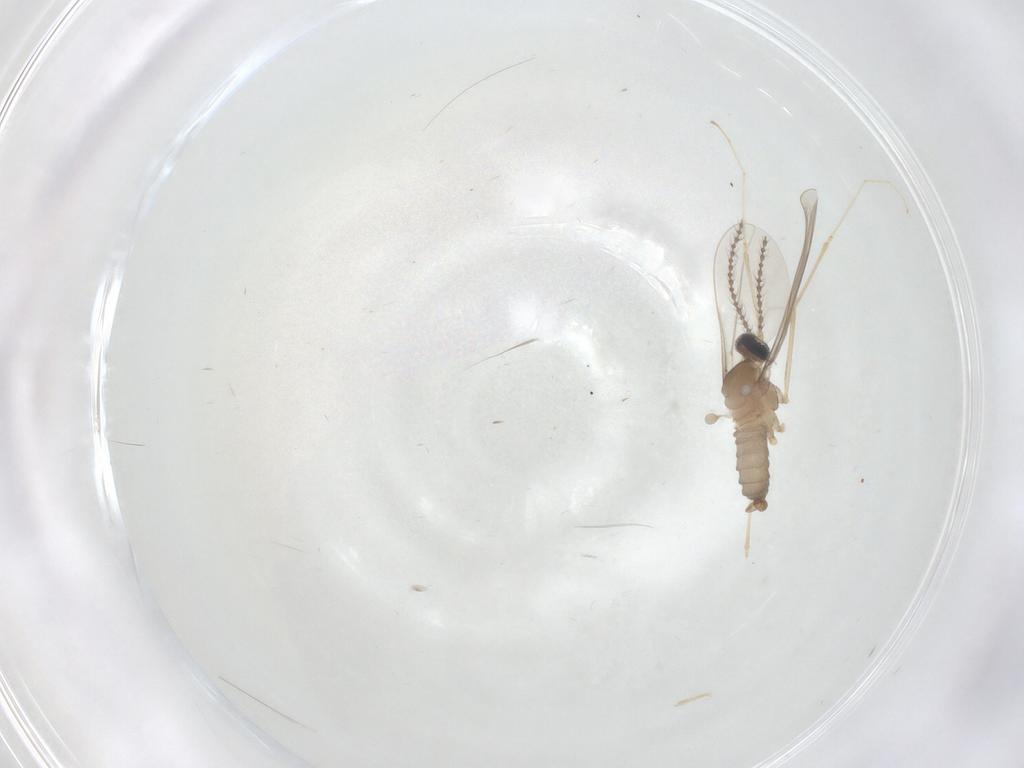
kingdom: Animalia
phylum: Arthropoda
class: Insecta
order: Diptera
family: Cecidomyiidae
